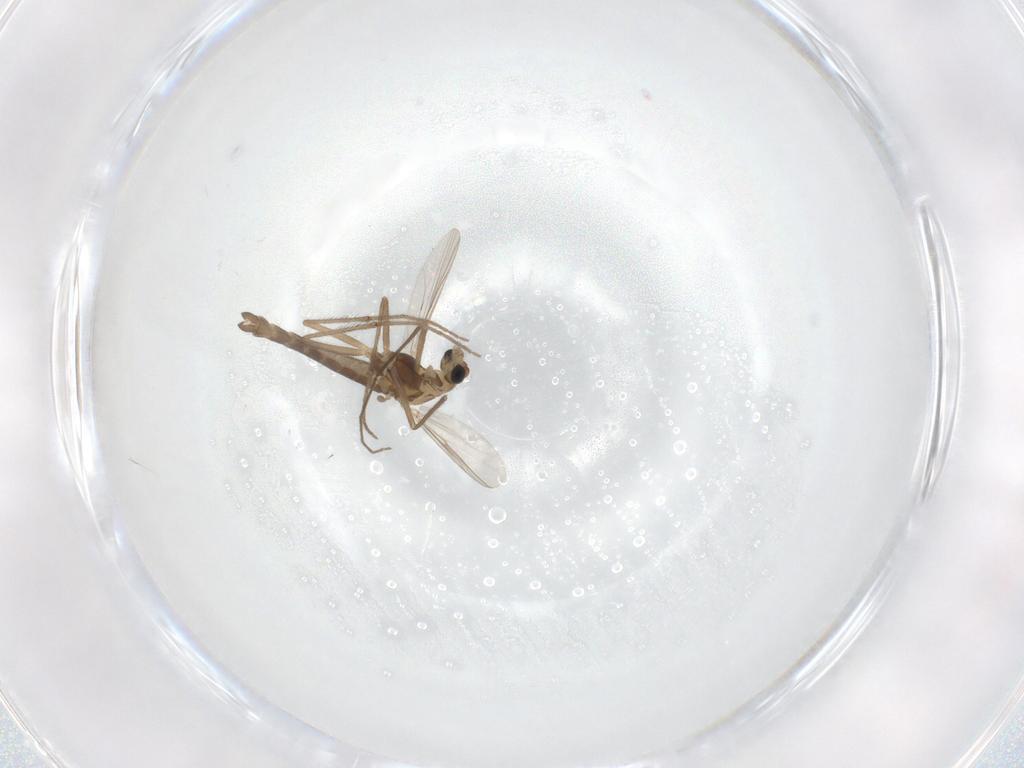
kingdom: Animalia
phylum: Arthropoda
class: Insecta
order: Diptera
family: Chironomidae
